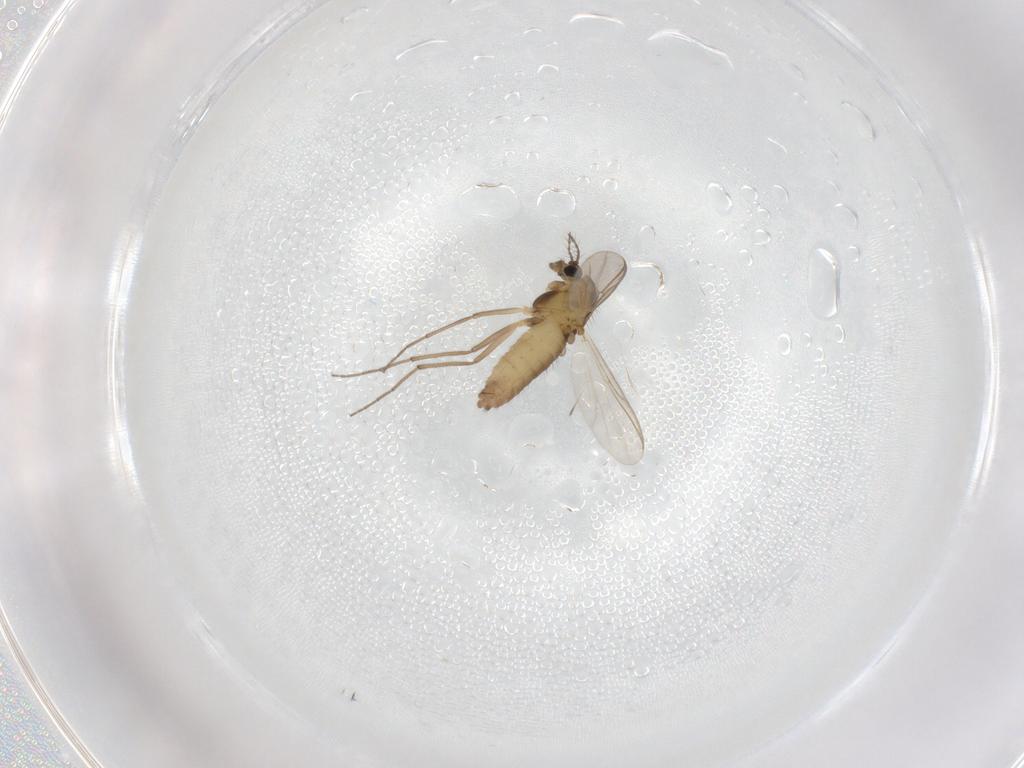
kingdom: Animalia
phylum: Arthropoda
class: Insecta
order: Diptera
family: Chironomidae
